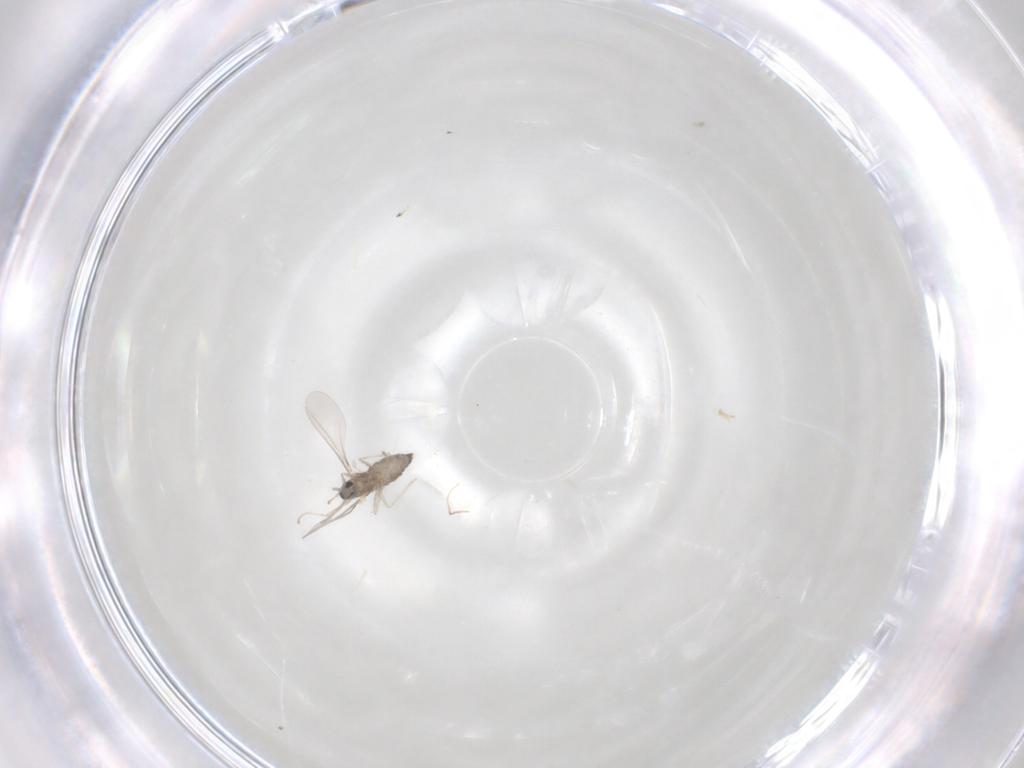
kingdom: Animalia
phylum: Arthropoda
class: Insecta
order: Diptera
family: Cecidomyiidae
